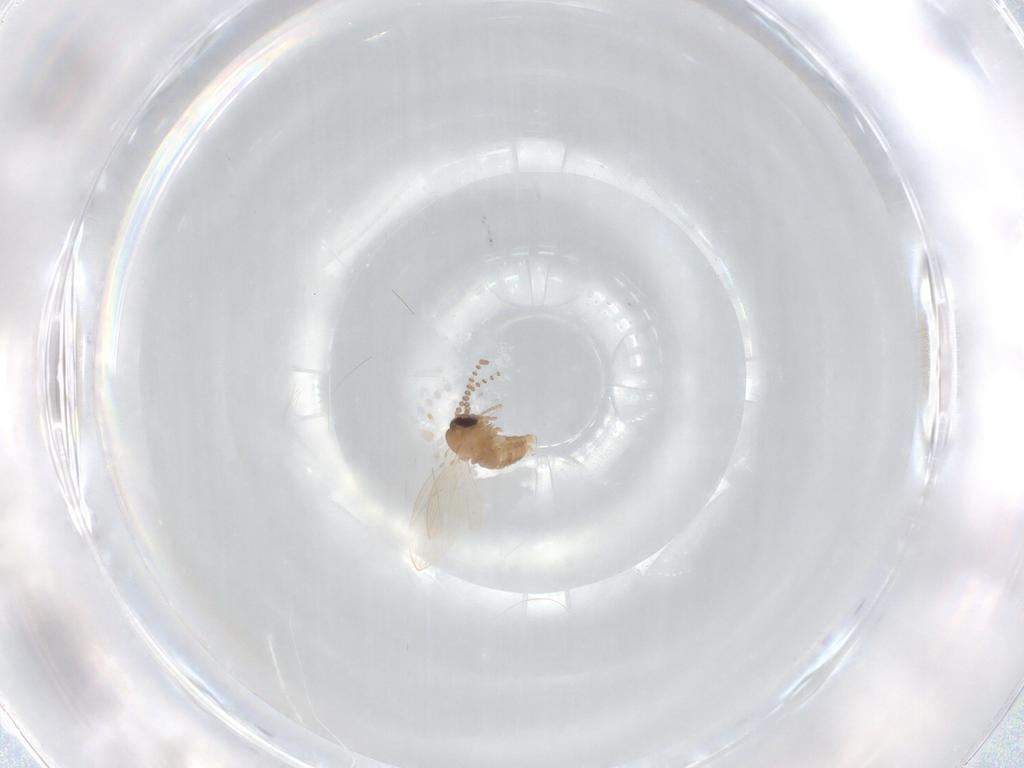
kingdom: Animalia
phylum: Arthropoda
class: Insecta
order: Diptera
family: Psychodidae
